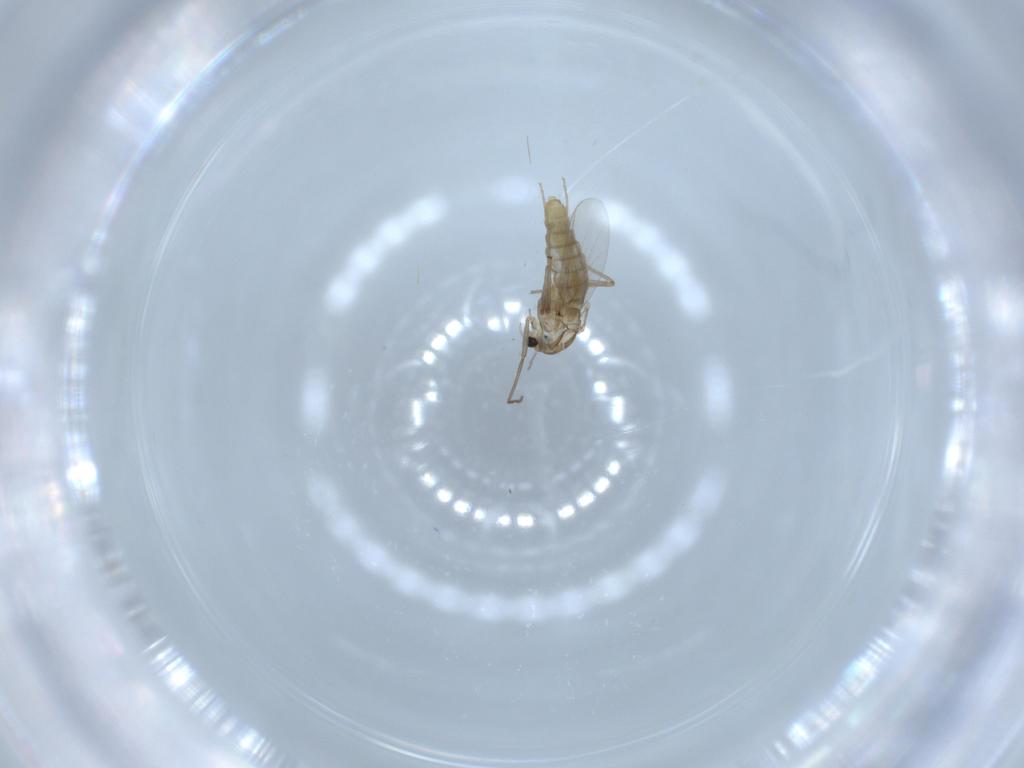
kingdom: Animalia
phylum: Arthropoda
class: Insecta
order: Diptera
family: Chironomidae
